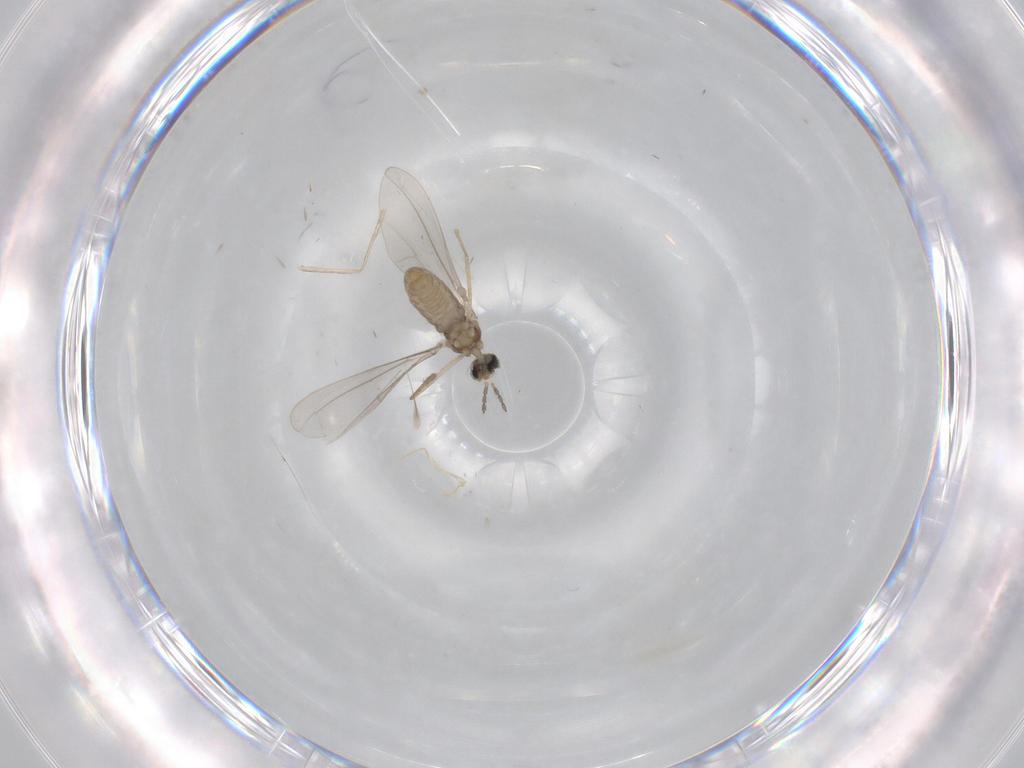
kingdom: Animalia
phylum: Arthropoda
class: Insecta
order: Diptera
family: Cecidomyiidae
